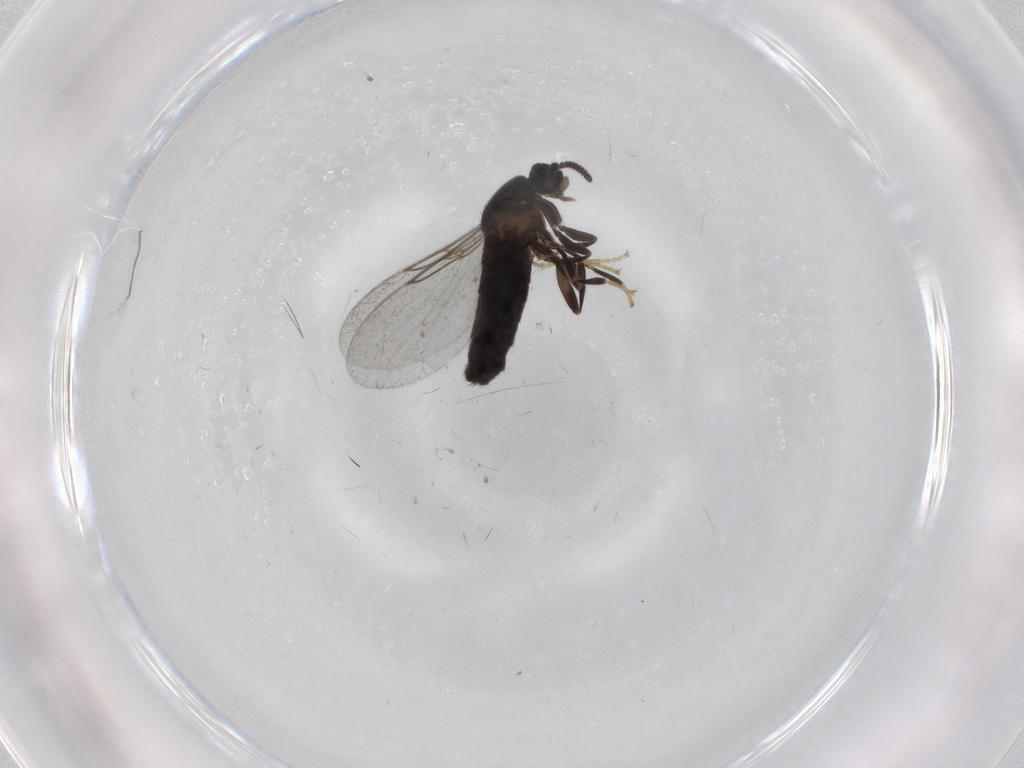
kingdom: Animalia
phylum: Arthropoda
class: Insecta
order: Diptera
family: Scatopsidae
